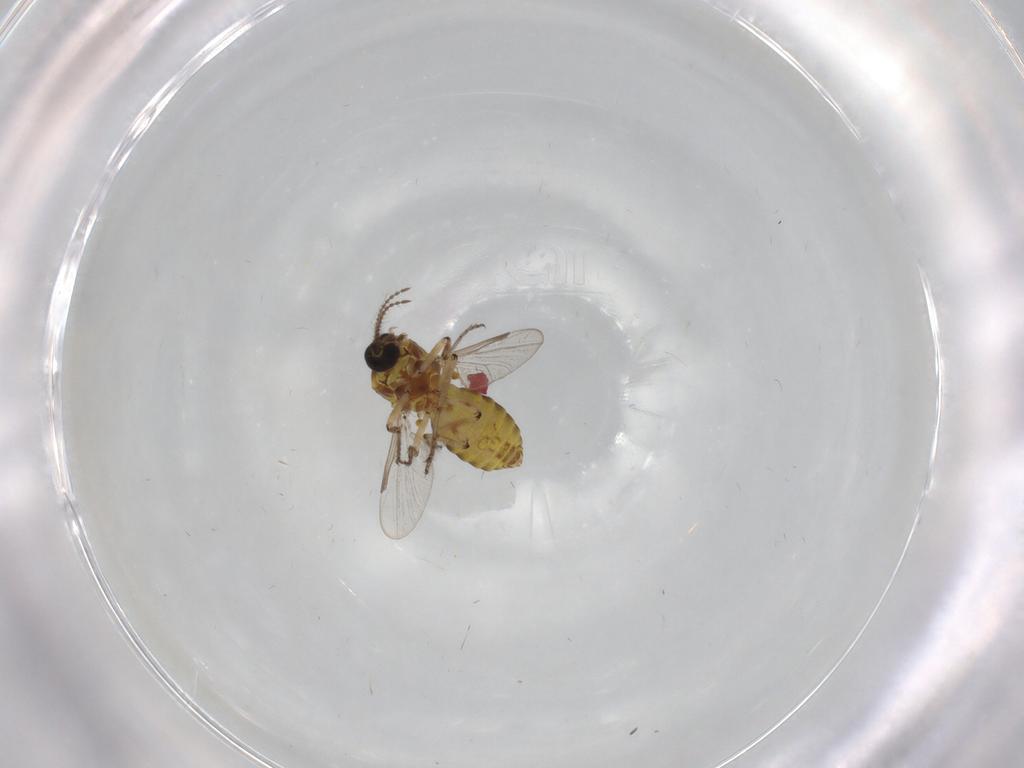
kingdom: Animalia
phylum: Arthropoda
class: Insecta
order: Diptera
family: Ceratopogonidae
